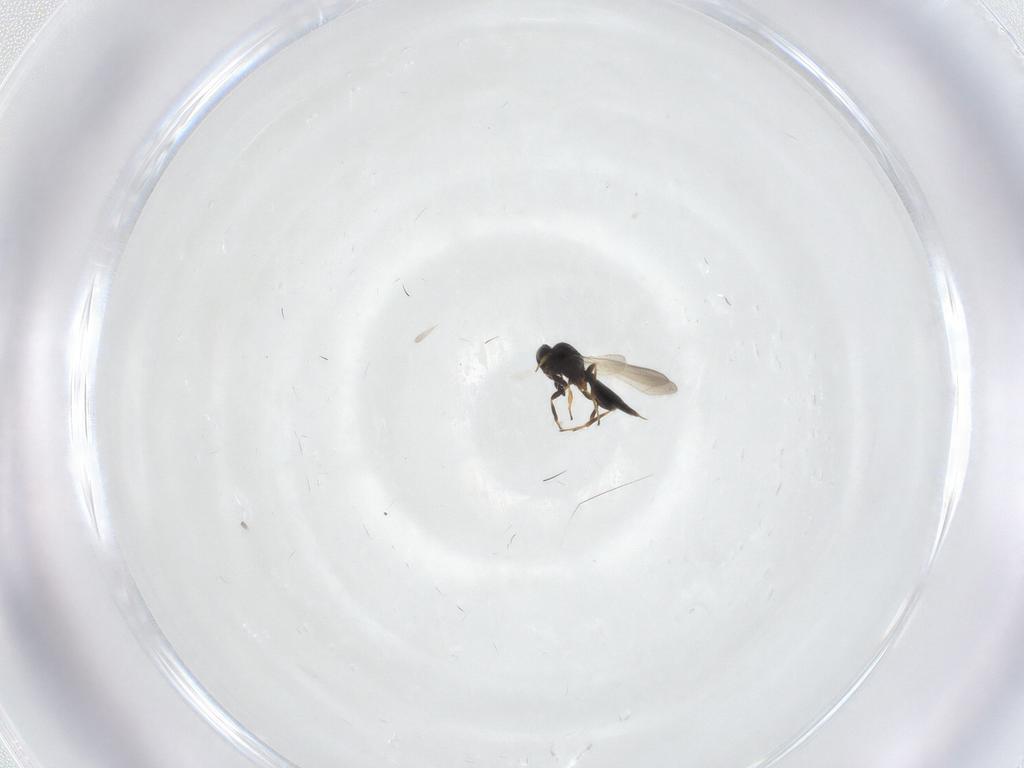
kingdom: Animalia
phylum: Arthropoda
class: Insecta
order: Hymenoptera
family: Platygastridae
